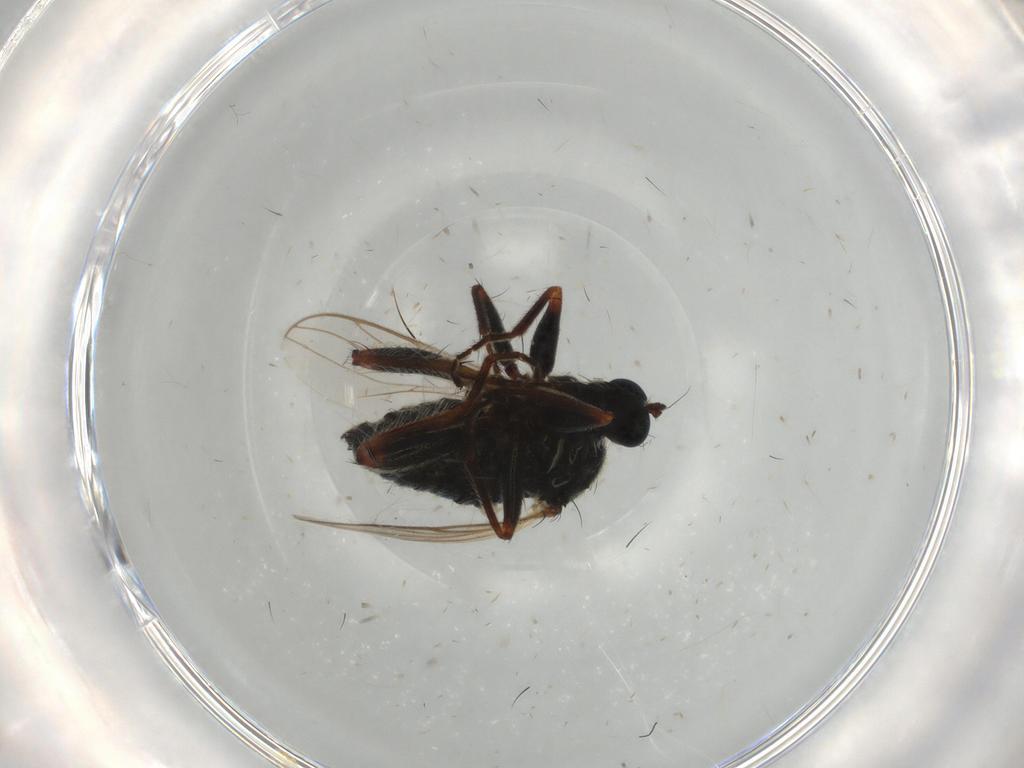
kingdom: Animalia
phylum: Arthropoda
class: Insecta
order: Diptera
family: Hybotidae
